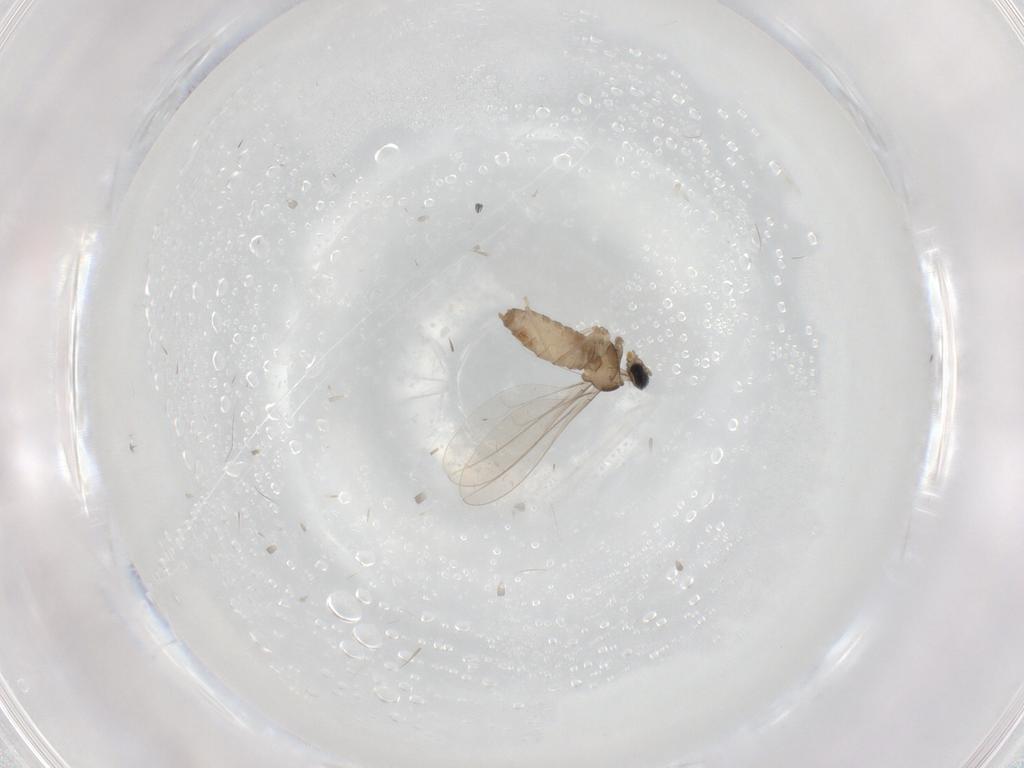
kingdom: Animalia
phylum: Arthropoda
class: Insecta
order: Diptera
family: Cecidomyiidae
